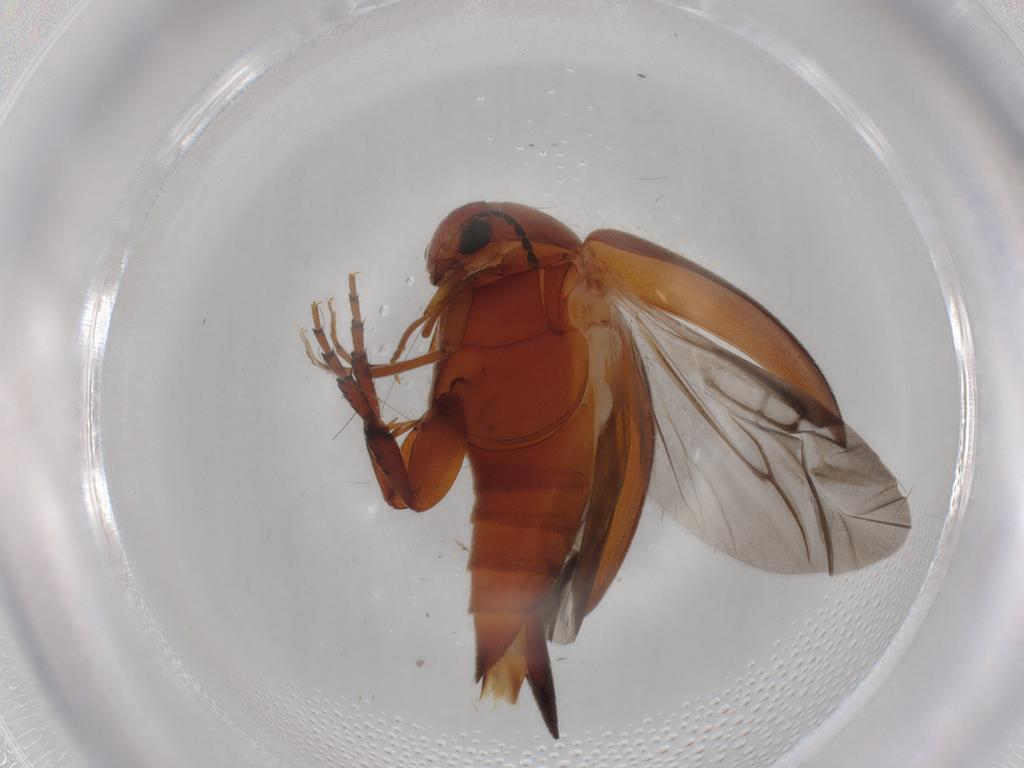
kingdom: Animalia
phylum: Arthropoda
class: Insecta
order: Coleoptera
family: Mordellidae
